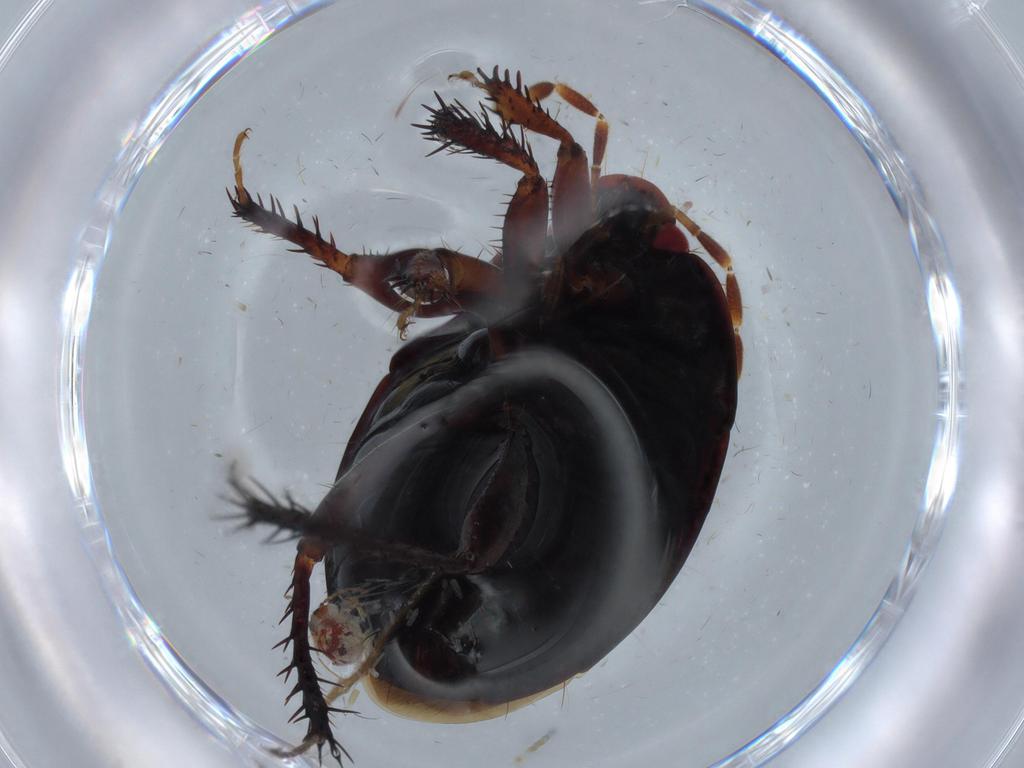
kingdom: Animalia
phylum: Arthropoda
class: Insecta
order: Hemiptera
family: Cydnidae
